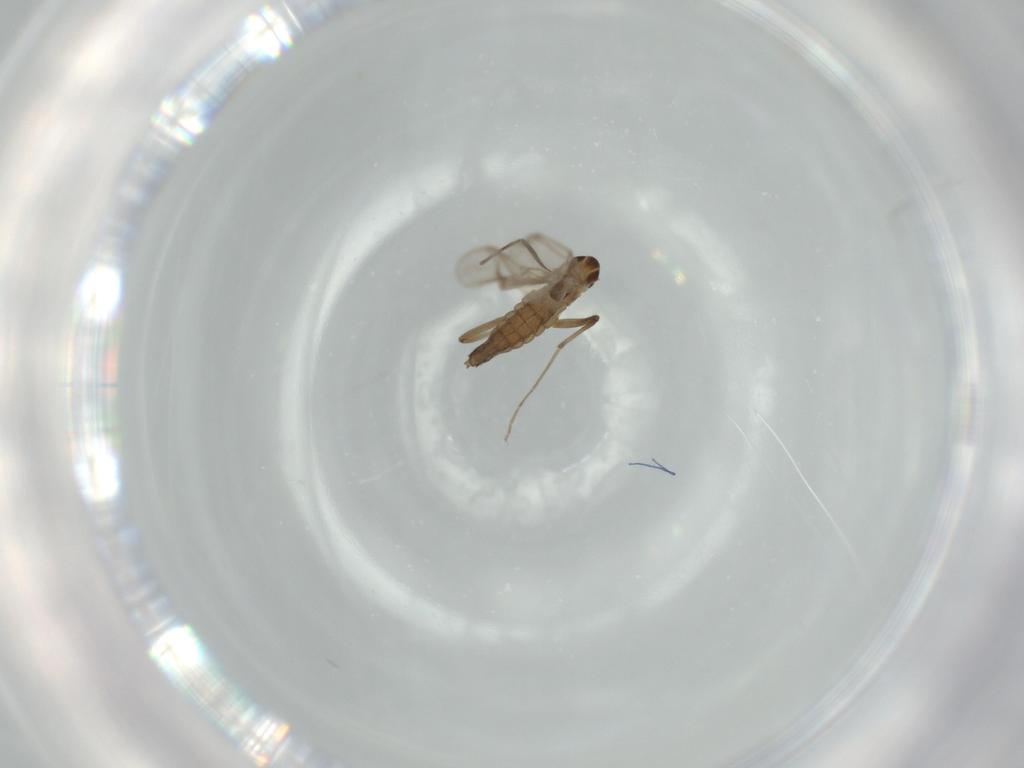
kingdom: Animalia
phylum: Arthropoda
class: Insecta
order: Diptera
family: Chironomidae
